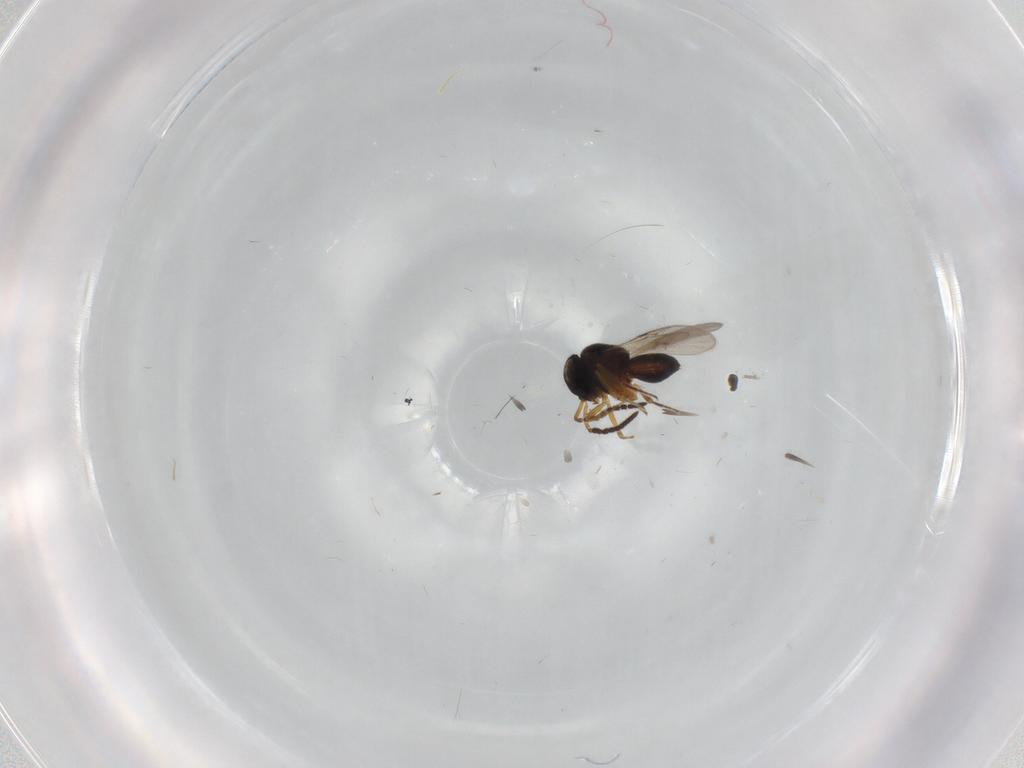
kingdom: Animalia
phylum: Arthropoda
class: Insecta
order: Hymenoptera
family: Scelionidae
